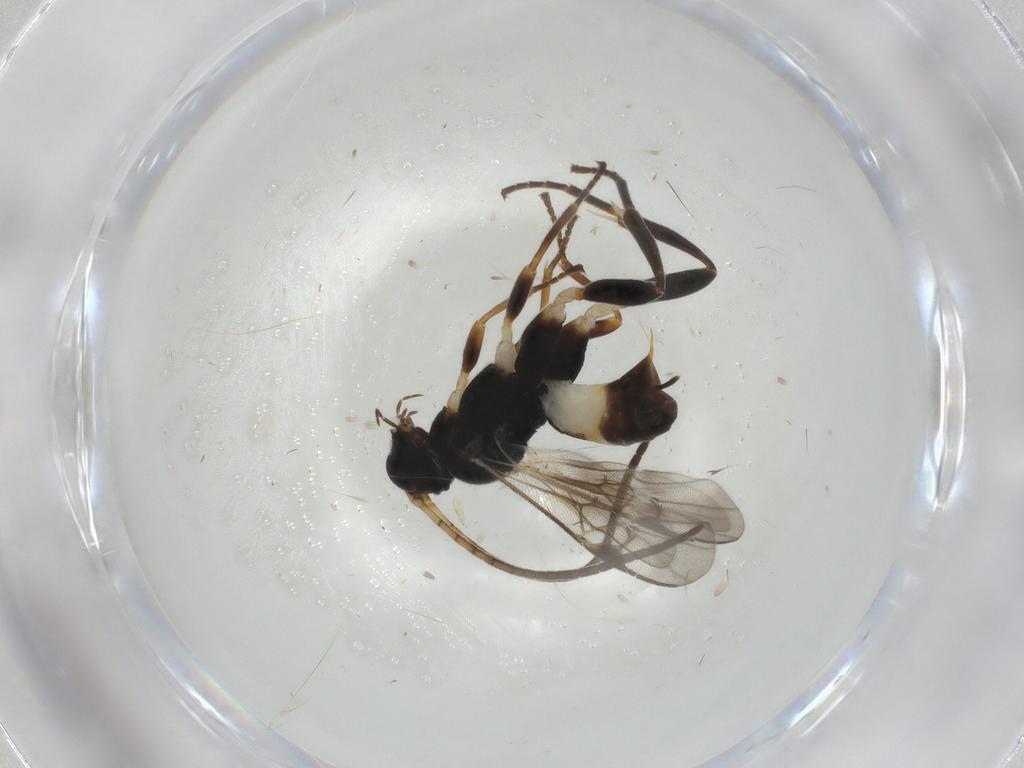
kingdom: Animalia
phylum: Arthropoda
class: Insecta
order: Hymenoptera
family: Braconidae
